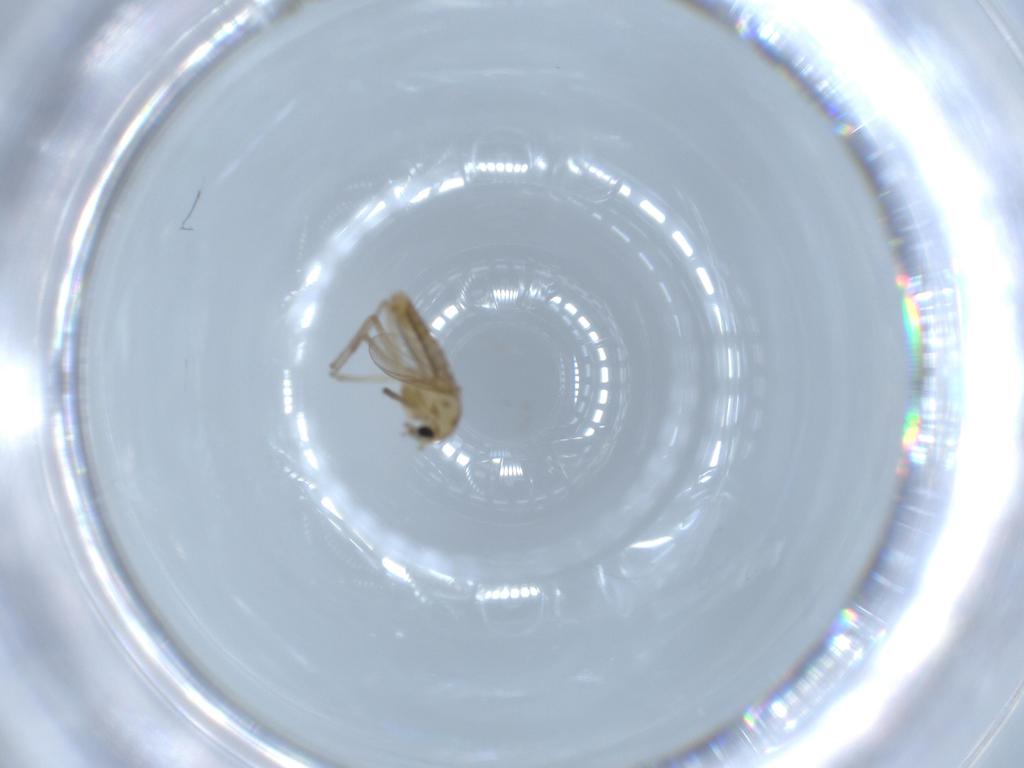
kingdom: Animalia
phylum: Arthropoda
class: Insecta
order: Diptera
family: Chironomidae
